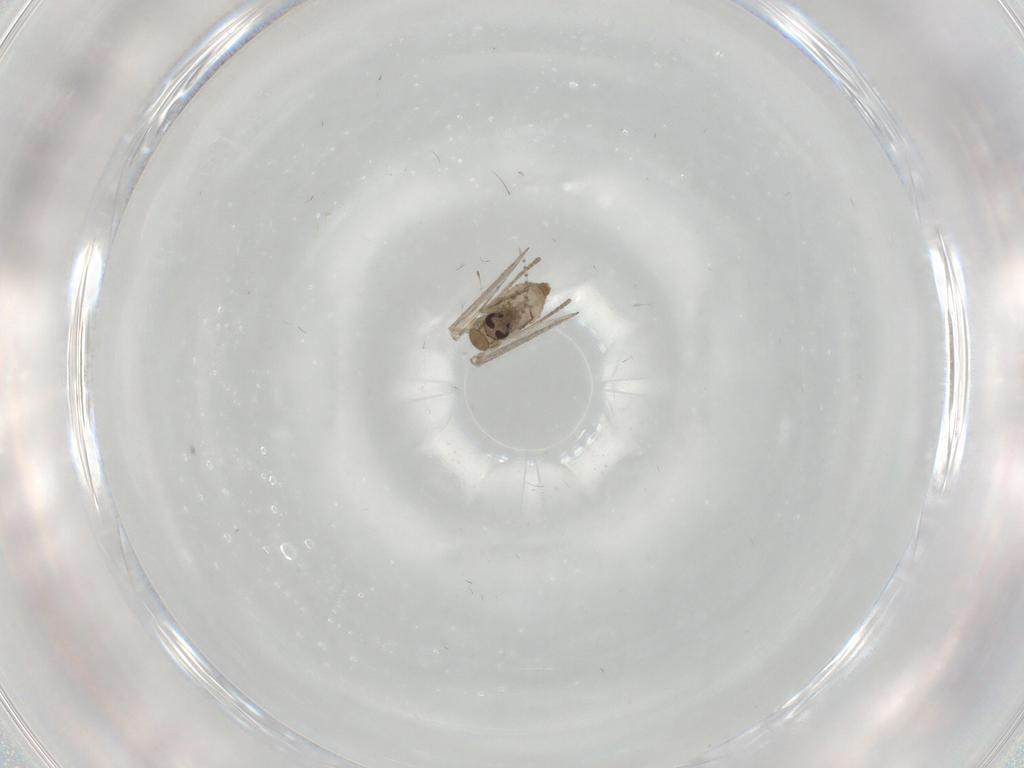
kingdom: Animalia
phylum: Arthropoda
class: Insecta
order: Diptera
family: Psychodidae
